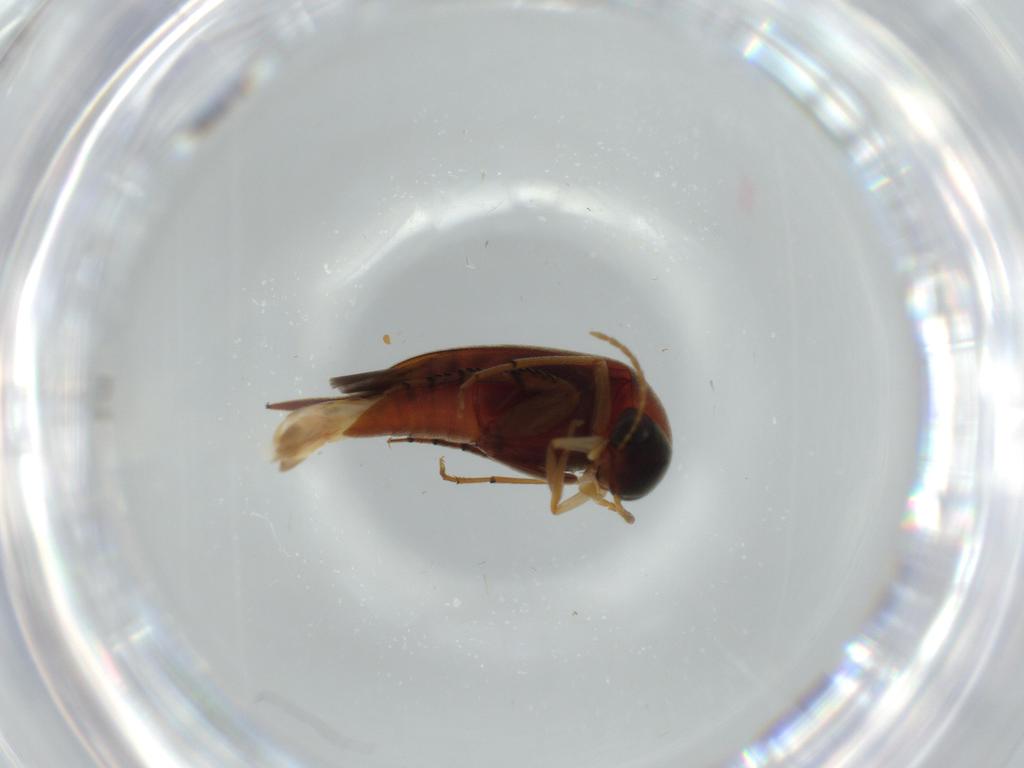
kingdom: Animalia
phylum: Arthropoda
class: Insecta
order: Coleoptera
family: Mordellidae
